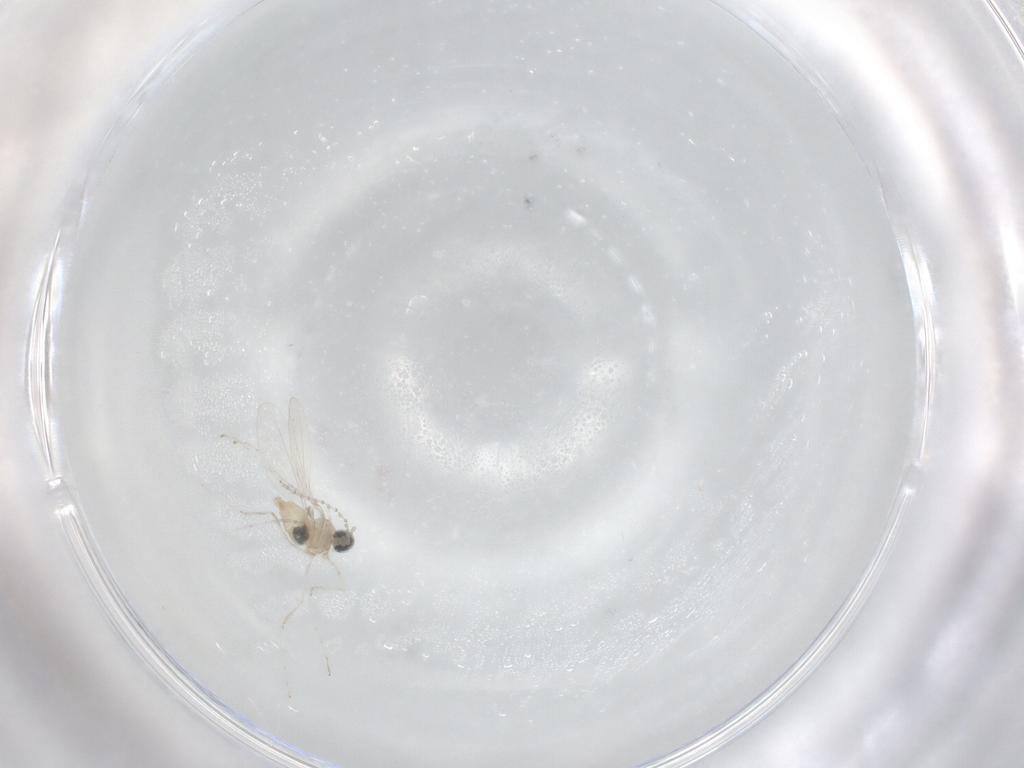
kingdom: Animalia
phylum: Arthropoda
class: Insecta
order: Diptera
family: Cecidomyiidae
